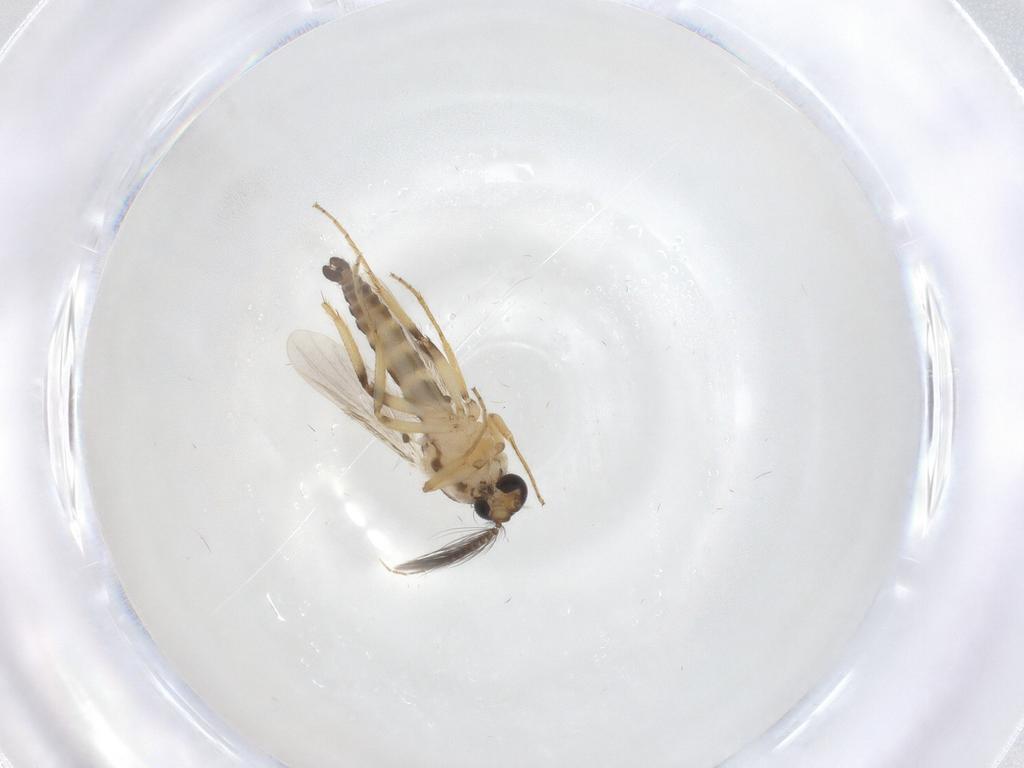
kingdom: Animalia
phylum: Arthropoda
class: Insecta
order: Diptera
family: Ceratopogonidae
